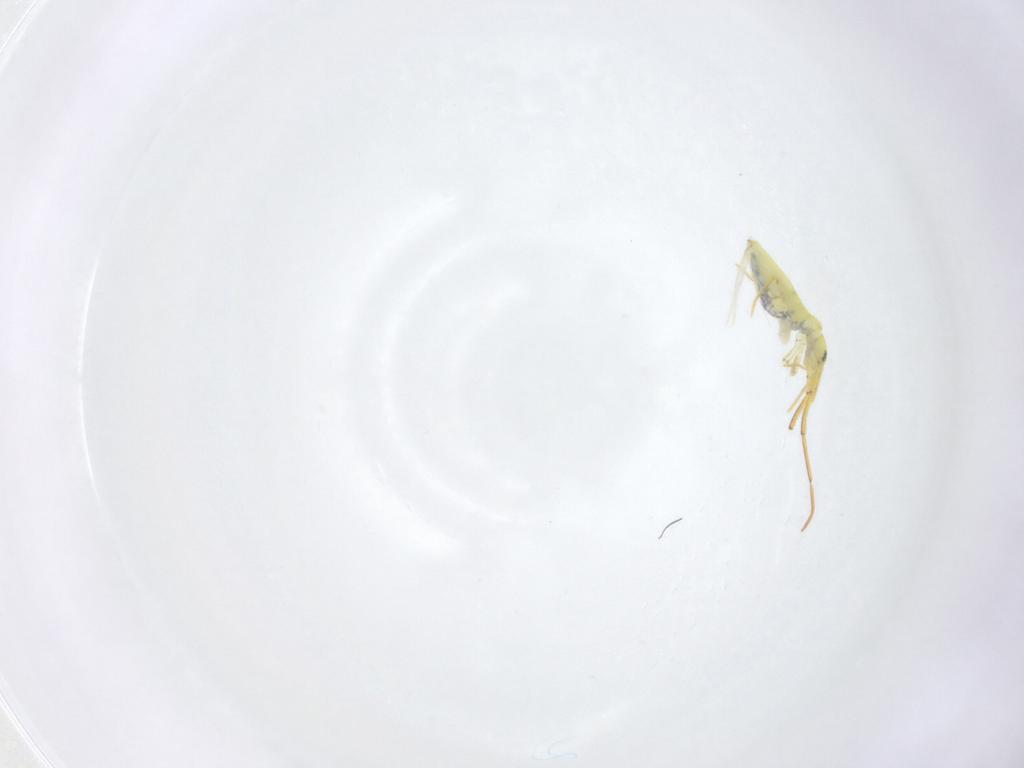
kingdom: Animalia
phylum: Arthropoda
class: Collembola
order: Entomobryomorpha
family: Entomobryidae
